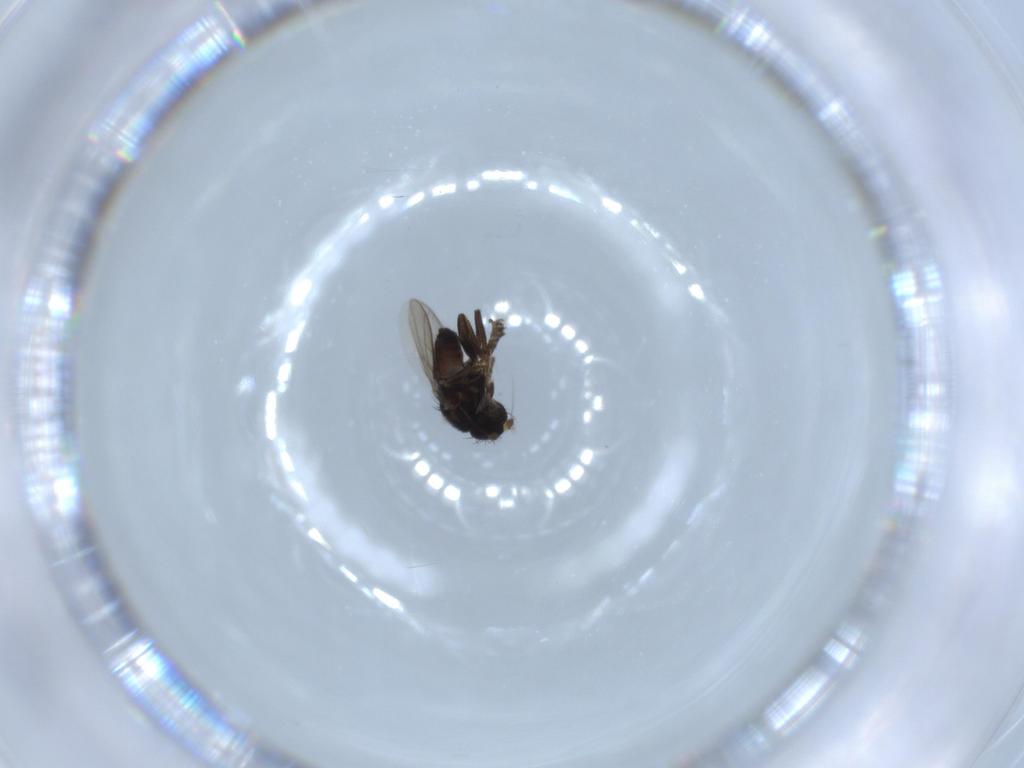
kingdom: Animalia
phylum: Arthropoda
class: Insecta
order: Diptera
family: Sphaeroceridae
